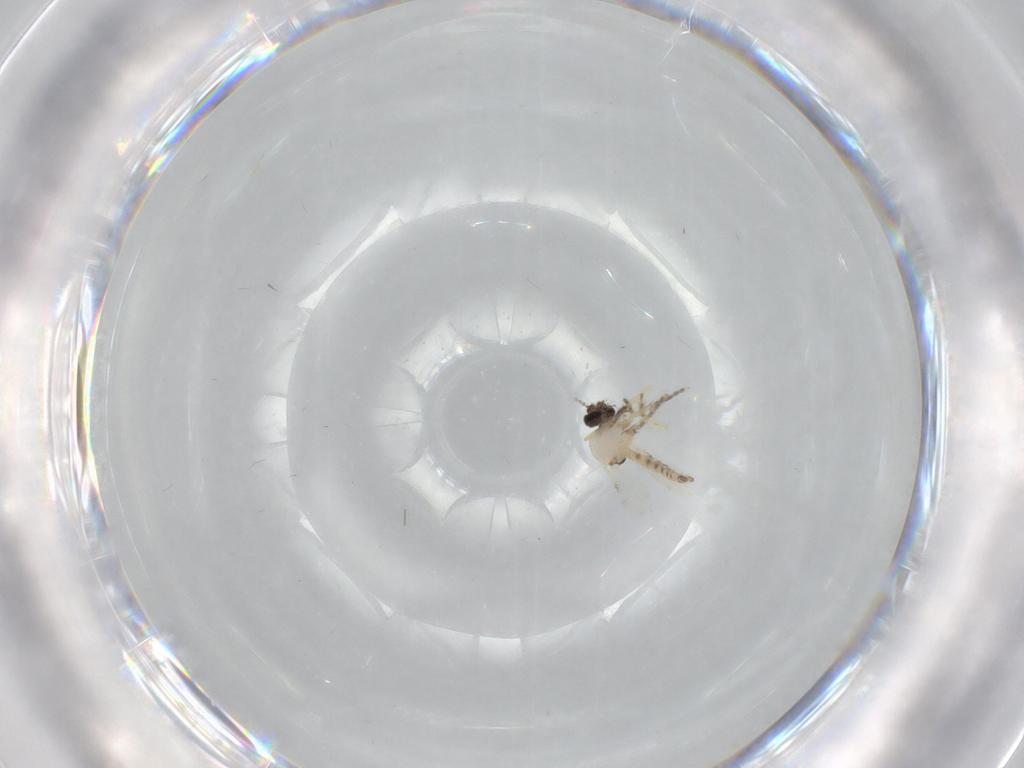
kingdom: Animalia
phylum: Arthropoda
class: Insecta
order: Diptera
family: Ceratopogonidae
